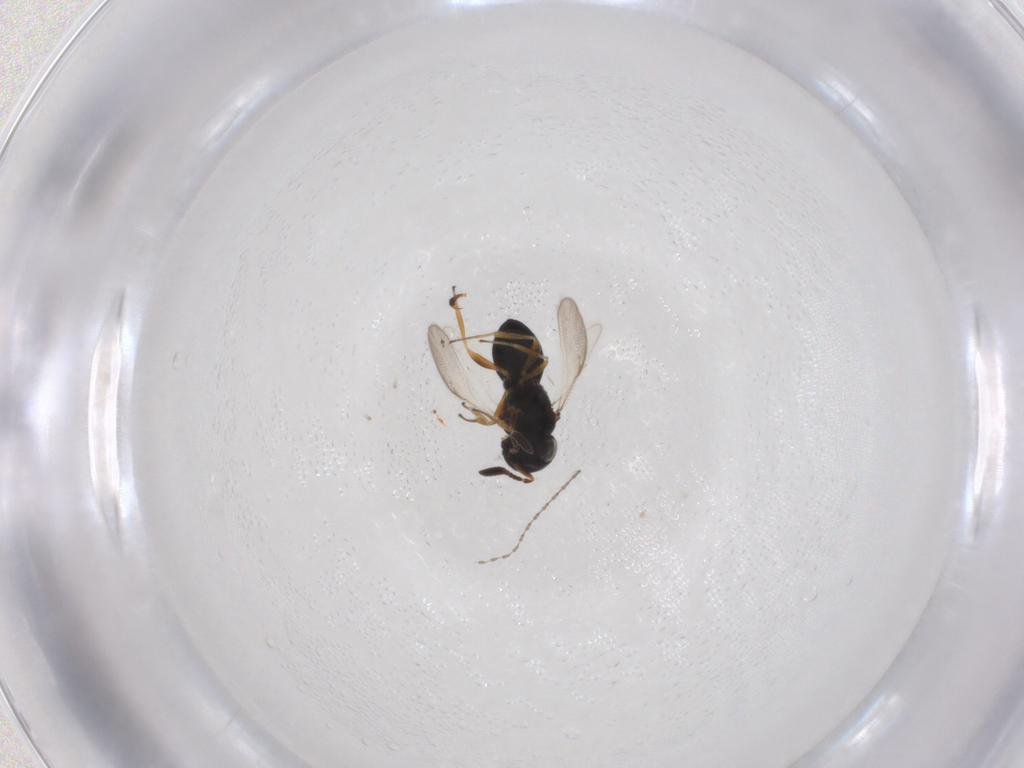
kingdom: Animalia
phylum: Arthropoda
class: Insecta
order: Hymenoptera
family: Scelionidae
